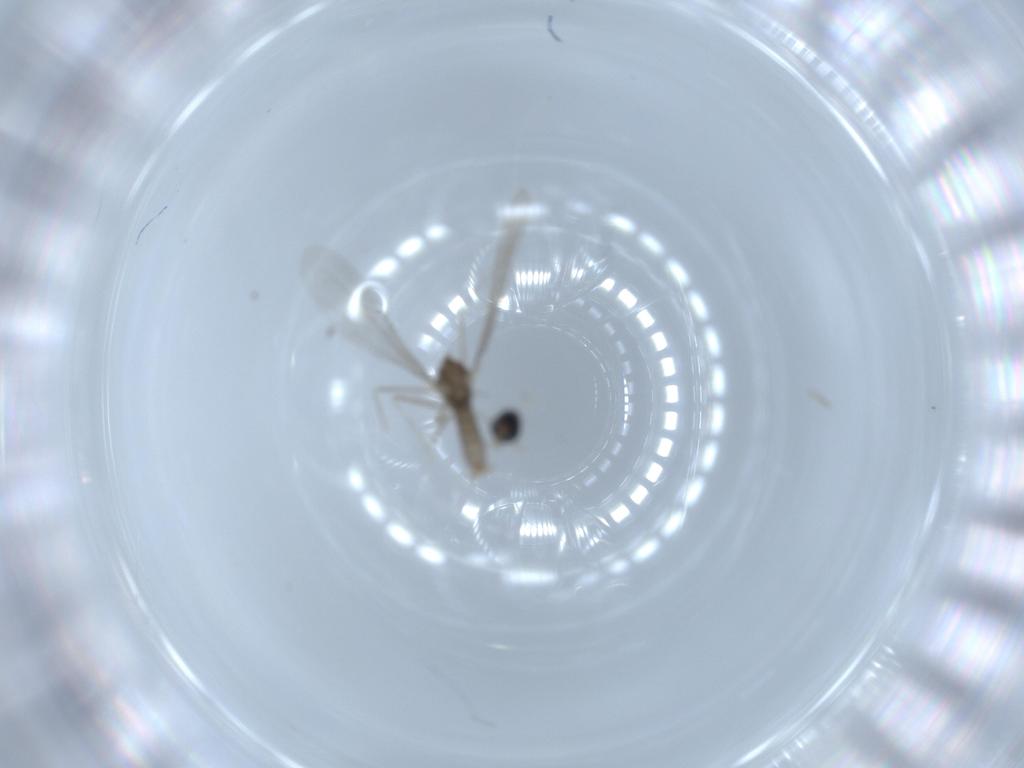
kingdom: Animalia
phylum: Arthropoda
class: Insecta
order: Diptera
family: Cecidomyiidae
